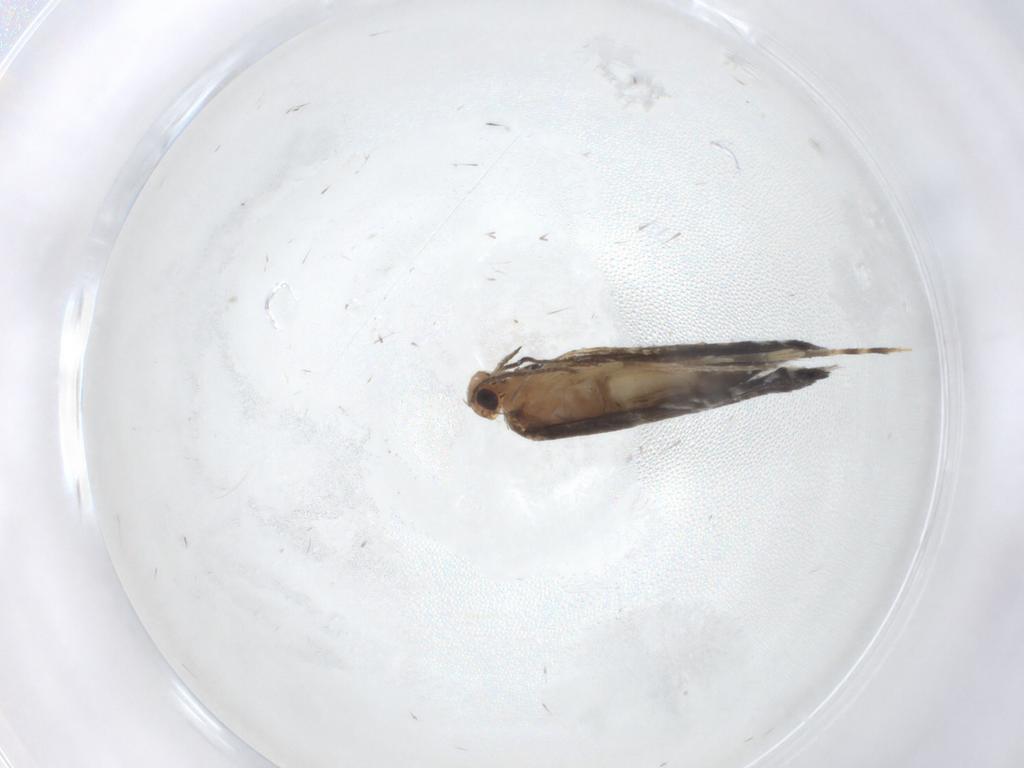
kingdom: Animalia
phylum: Arthropoda
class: Insecta
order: Lepidoptera
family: Glyphipterigidae
